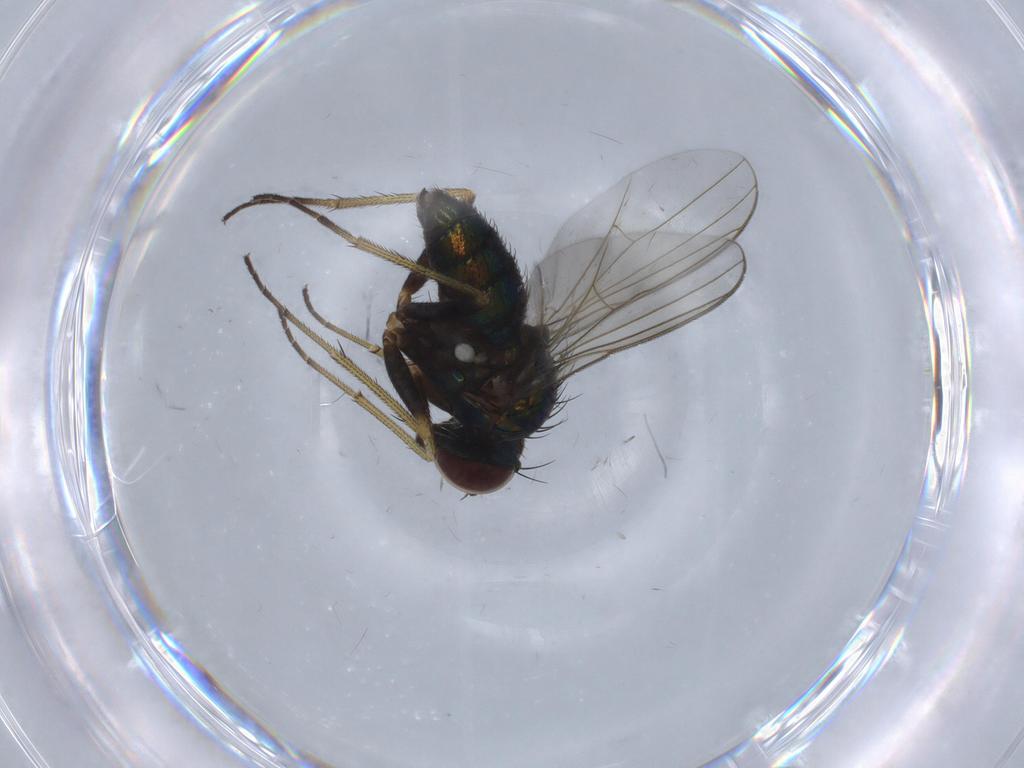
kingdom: Animalia
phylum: Arthropoda
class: Insecta
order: Diptera
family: Dolichopodidae
